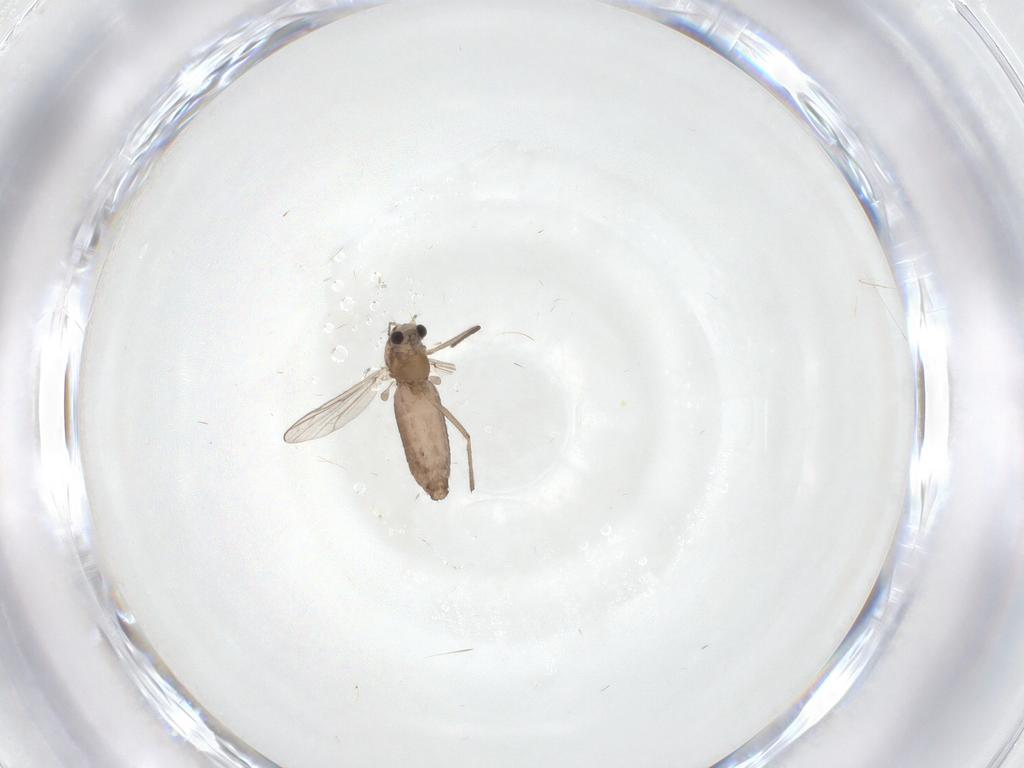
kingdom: Animalia
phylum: Arthropoda
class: Insecta
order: Diptera
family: Chironomidae
